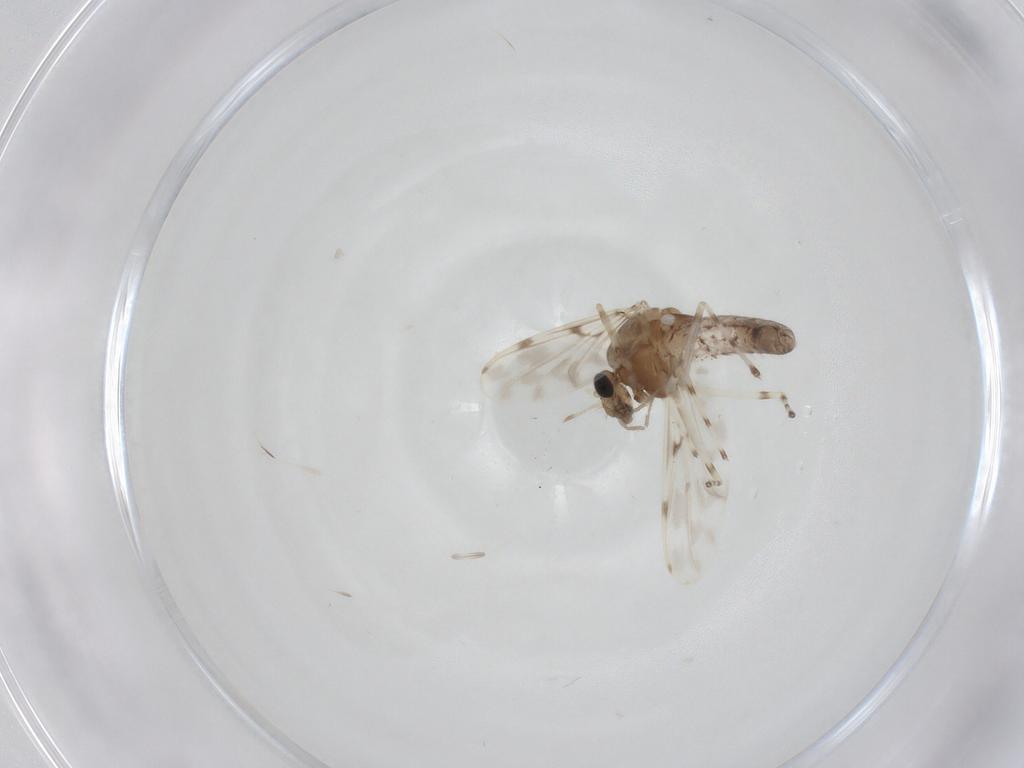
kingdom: Animalia
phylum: Arthropoda
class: Insecta
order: Diptera
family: Chironomidae
